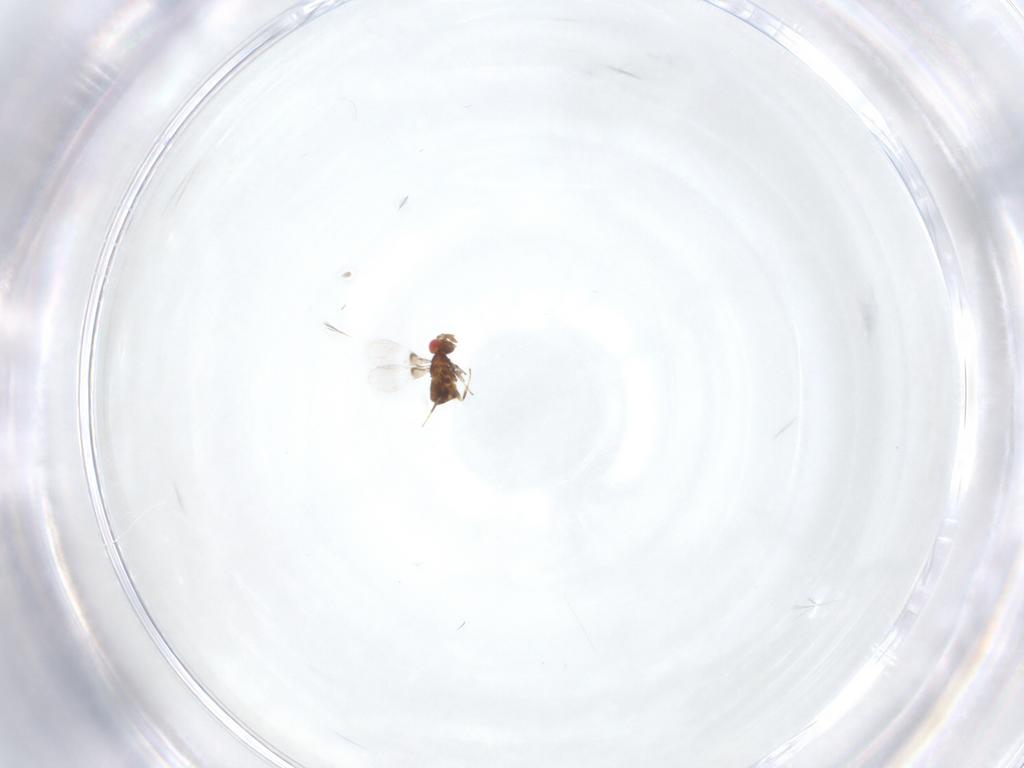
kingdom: Animalia
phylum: Arthropoda
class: Insecta
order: Hymenoptera
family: Trichogrammatidae
